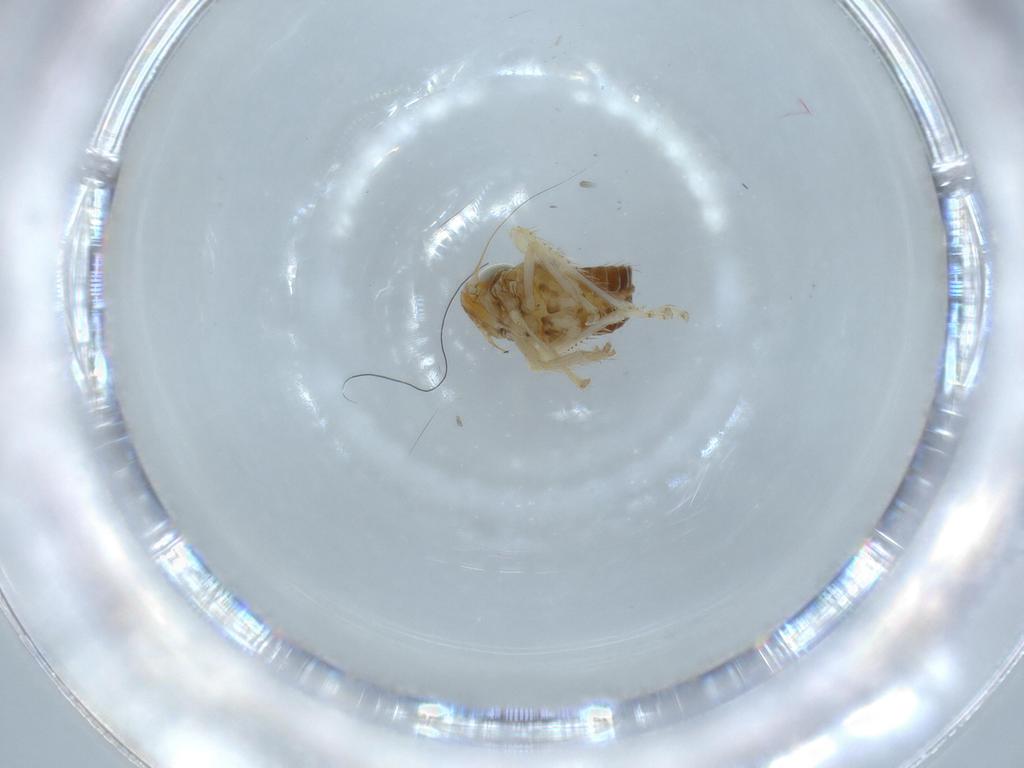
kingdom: Animalia
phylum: Arthropoda
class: Insecta
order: Hemiptera
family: Cicadellidae
